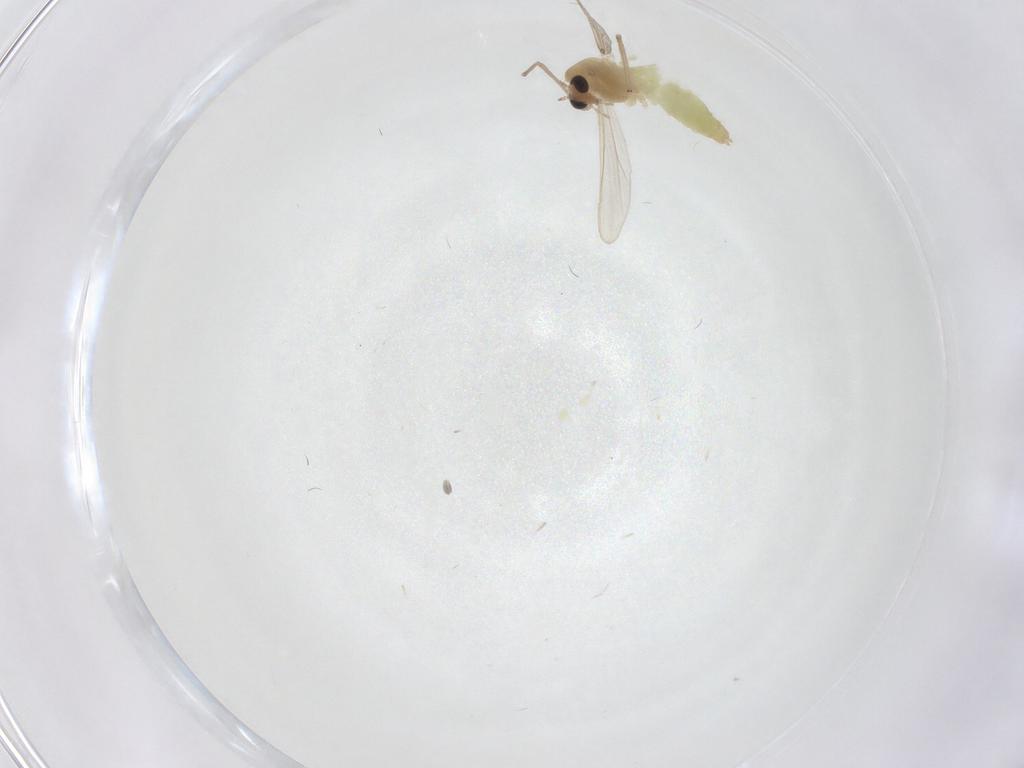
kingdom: Animalia
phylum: Arthropoda
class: Insecta
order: Diptera
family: Chironomidae
